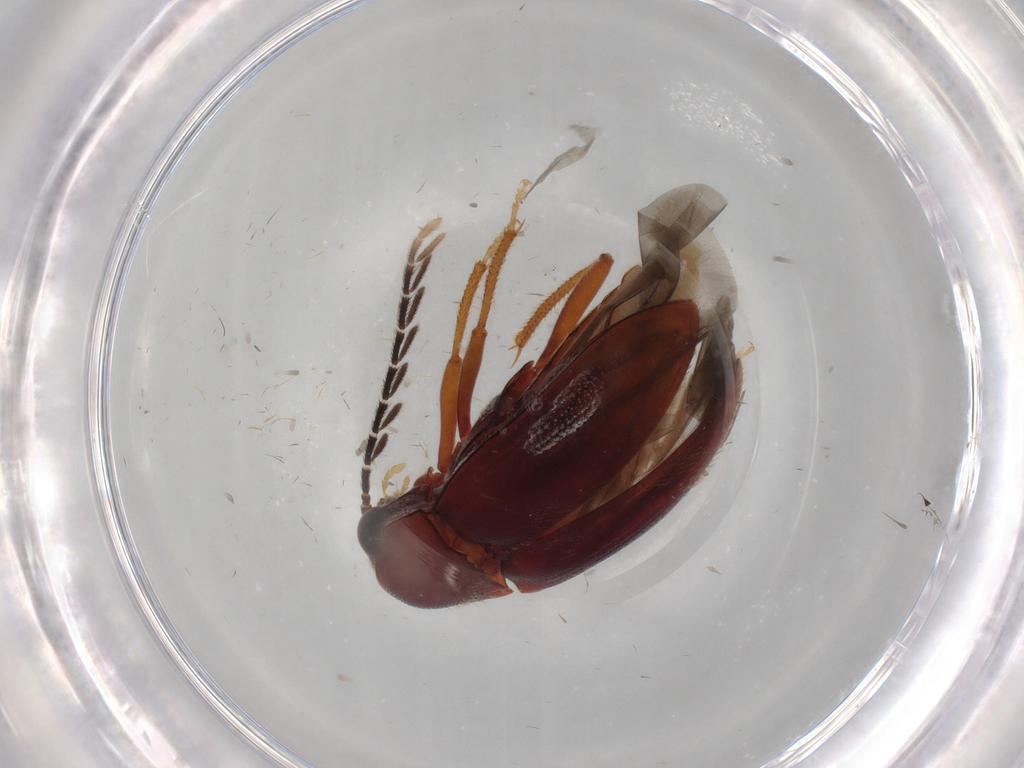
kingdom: Animalia
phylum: Arthropoda
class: Insecta
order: Coleoptera
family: Ptilodactylidae
